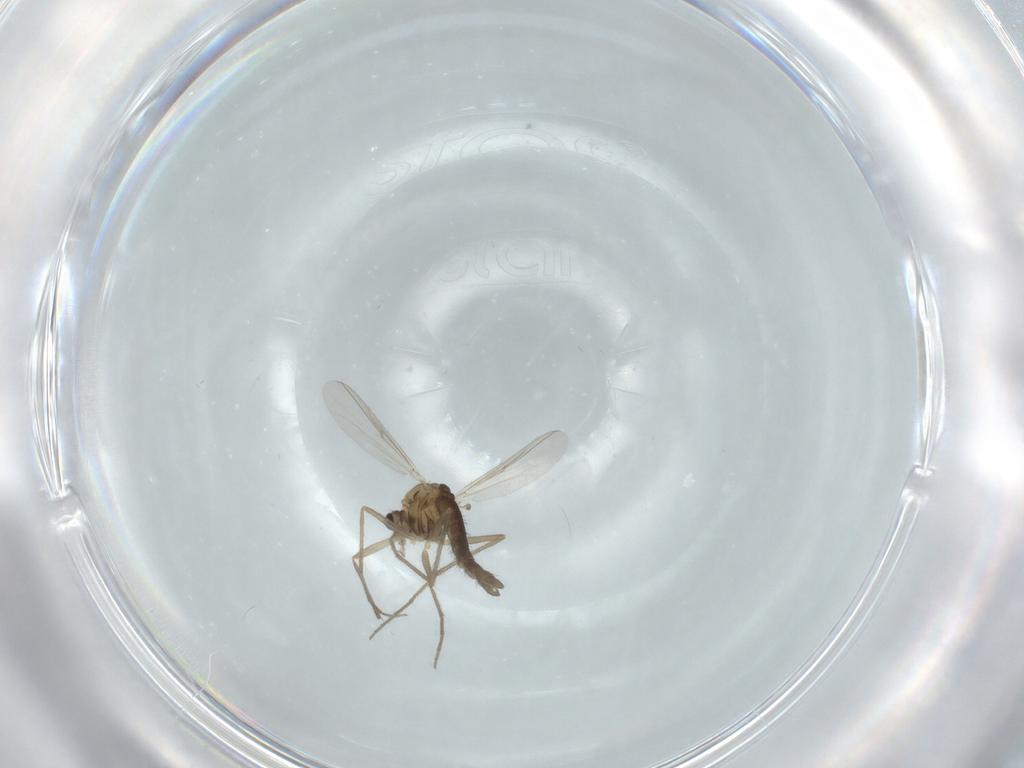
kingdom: Animalia
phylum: Arthropoda
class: Insecta
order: Diptera
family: Chironomidae
